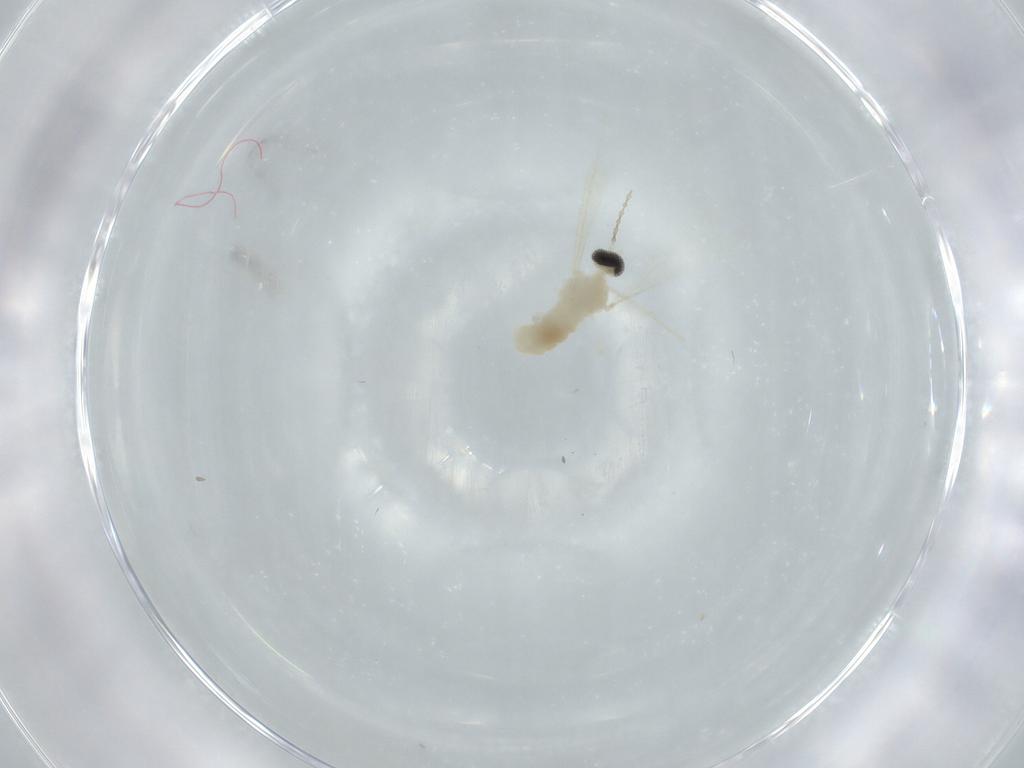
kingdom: Animalia
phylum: Arthropoda
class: Insecta
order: Diptera
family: Cecidomyiidae
